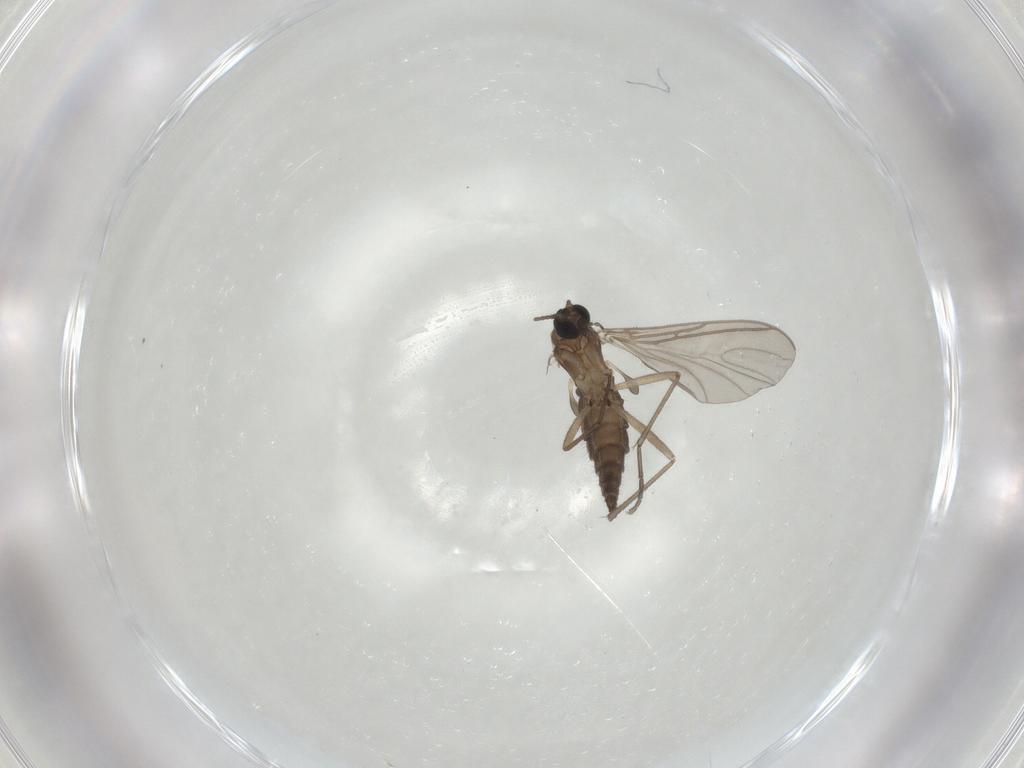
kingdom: Animalia
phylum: Arthropoda
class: Insecta
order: Diptera
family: Sciaridae
